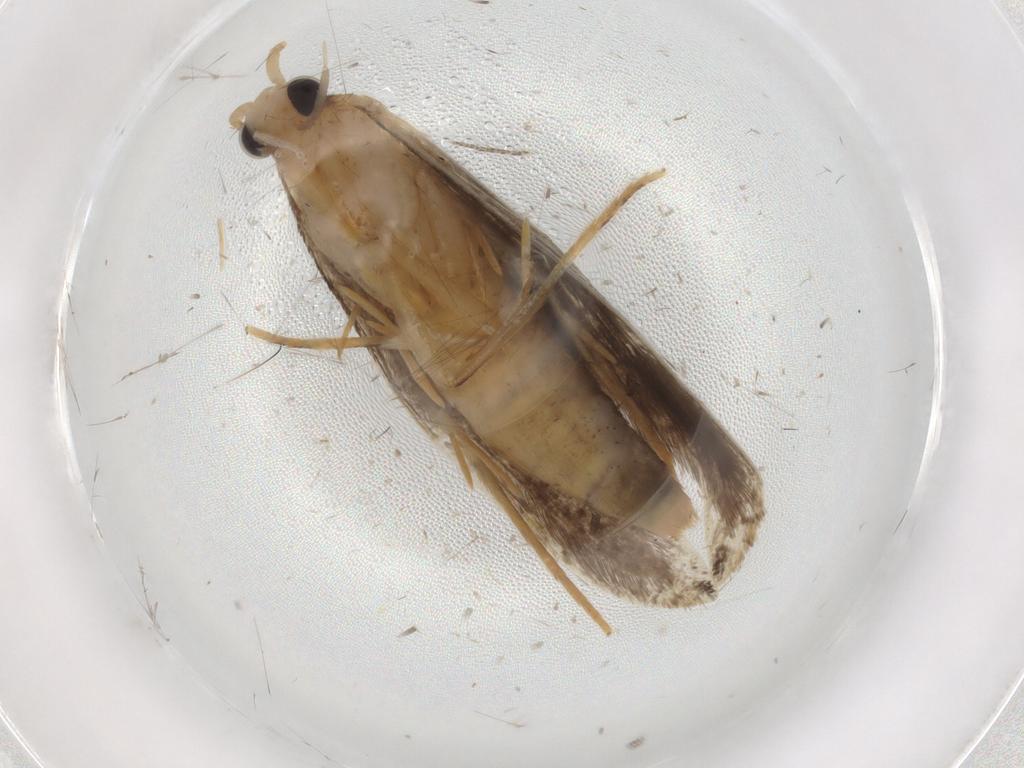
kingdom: Animalia
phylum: Arthropoda
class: Insecta
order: Lepidoptera
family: Nepticulidae
